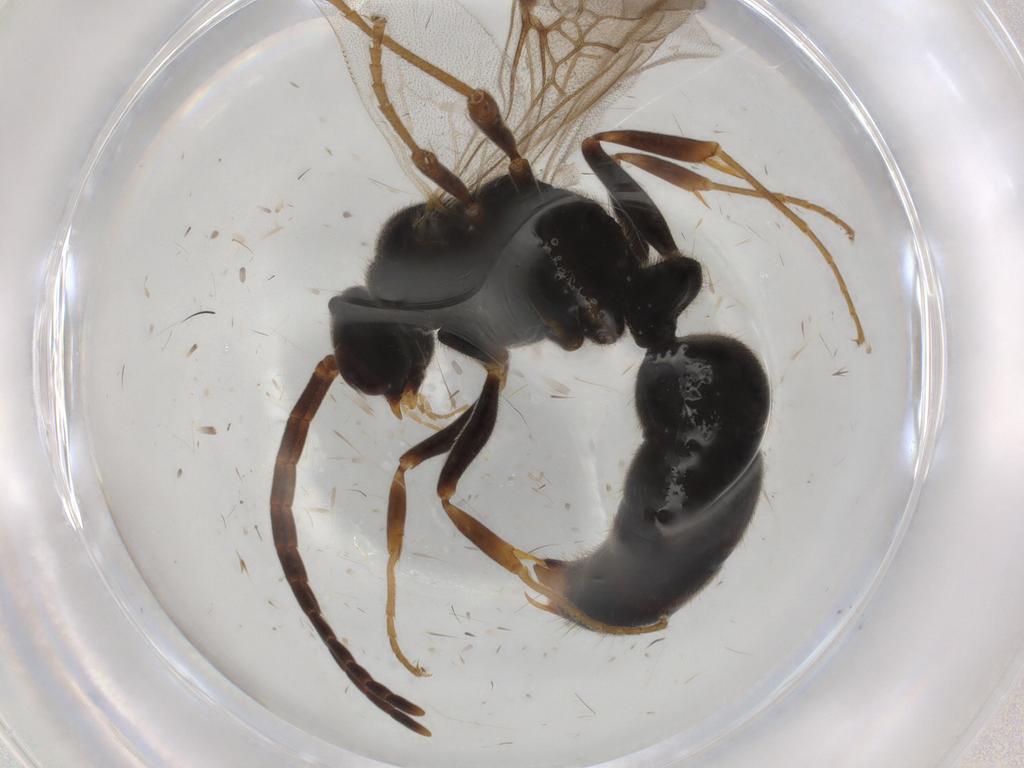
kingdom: Animalia
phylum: Arthropoda
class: Insecta
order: Hymenoptera
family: Formicidae
